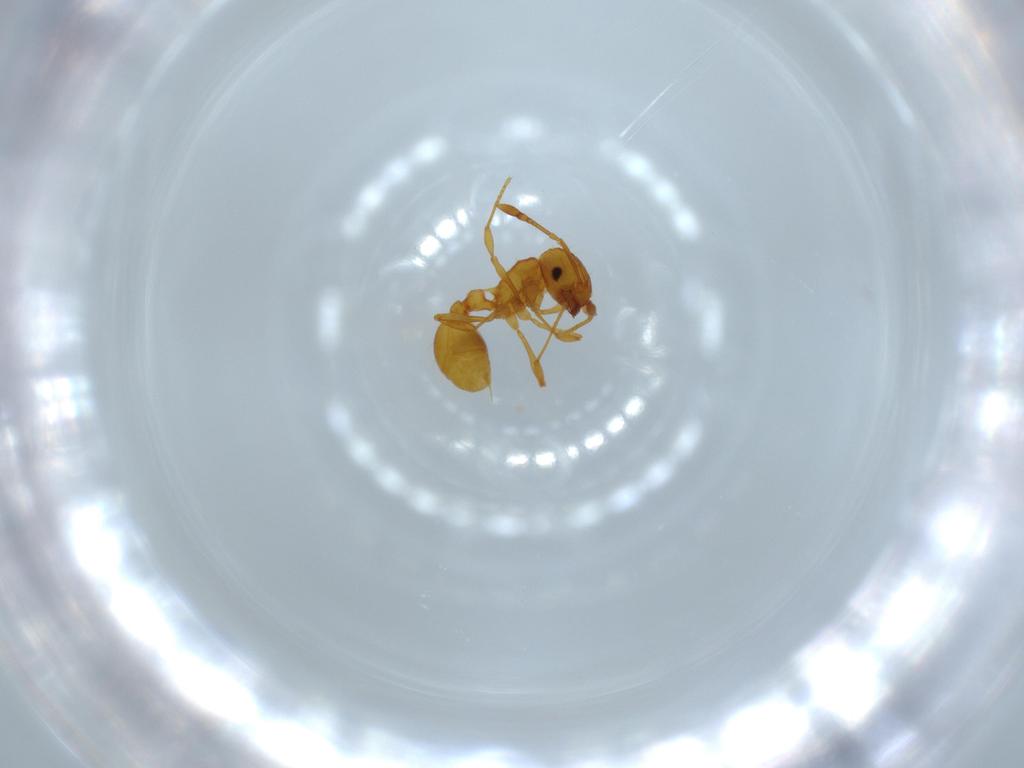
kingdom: Animalia
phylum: Arthropoda
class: Insecta
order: Hymenoptera
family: Formicidae
